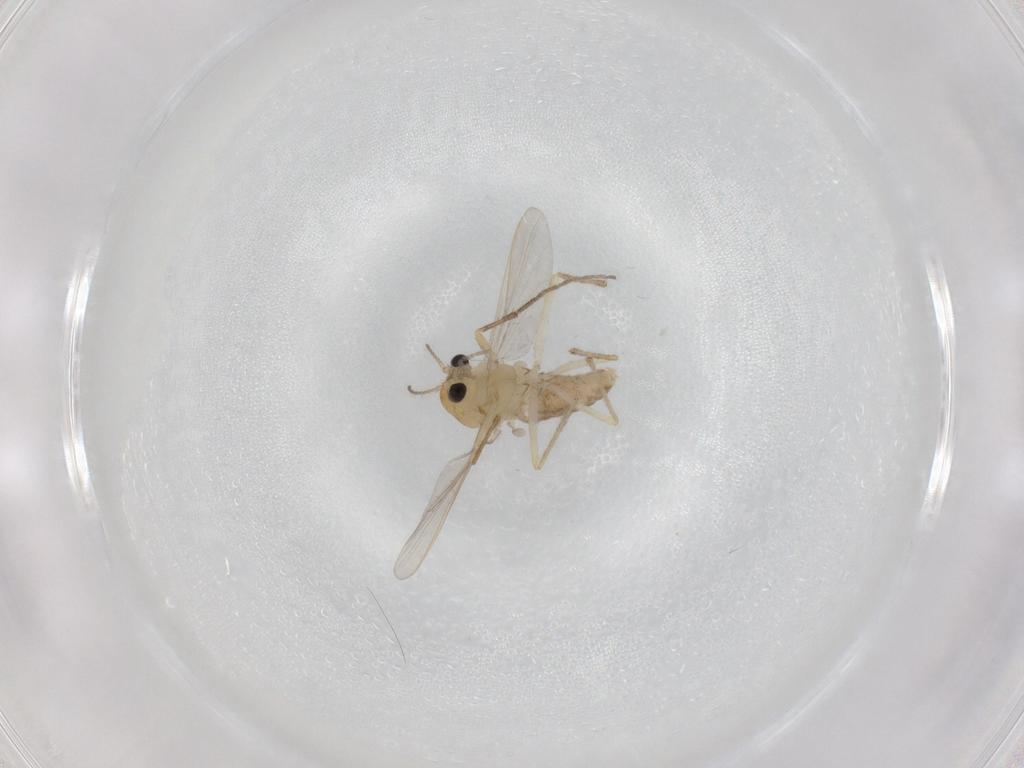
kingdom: Animalia
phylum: Arthropoda
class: Insecta
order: Diptera
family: Chironomidae
